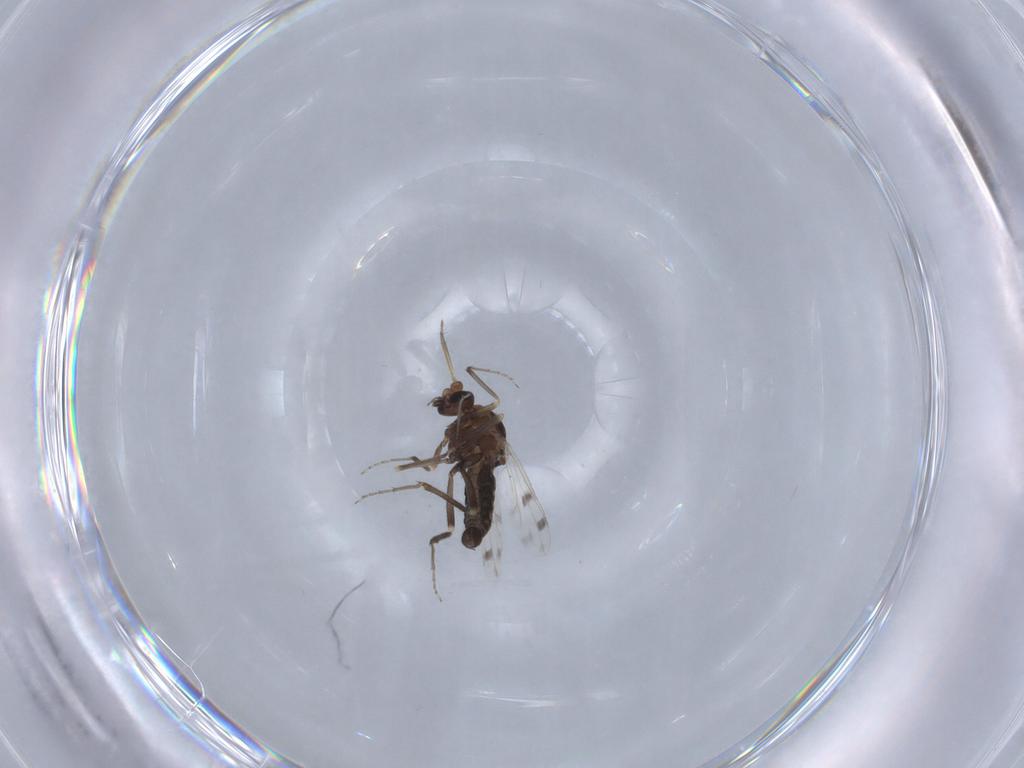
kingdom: Animalia
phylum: Arthropoda
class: Insecta
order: Diptera
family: Ceratopogonidae
